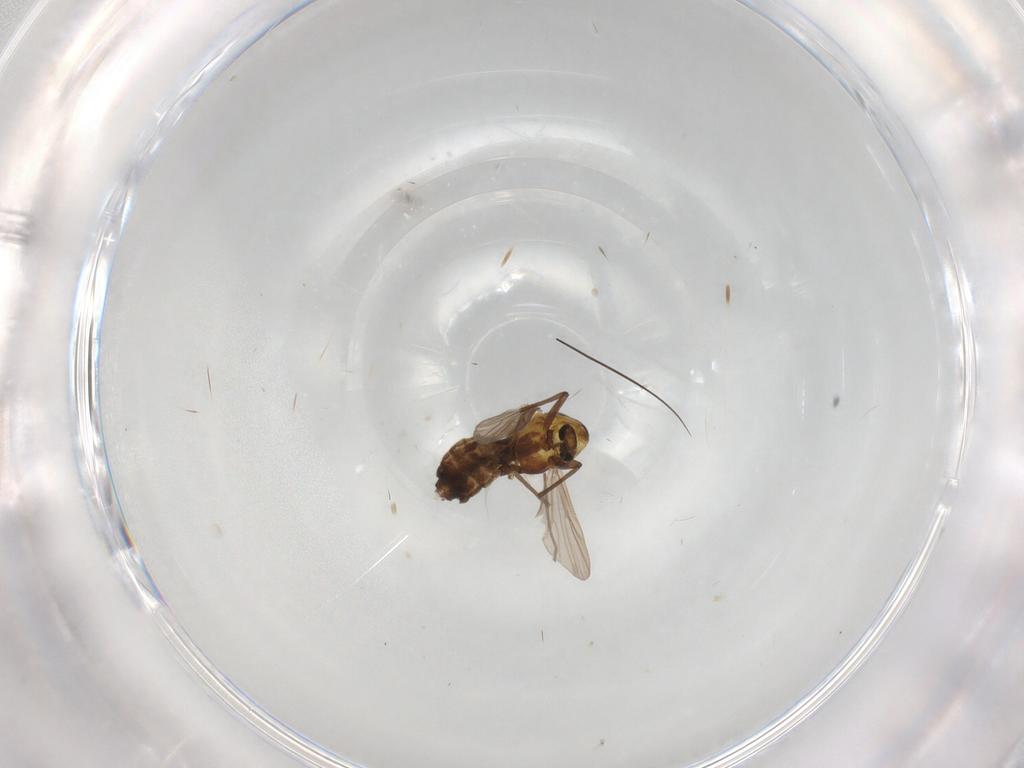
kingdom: Animalia
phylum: Arthropoda
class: Insecta
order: Diptera
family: Chironomidae
